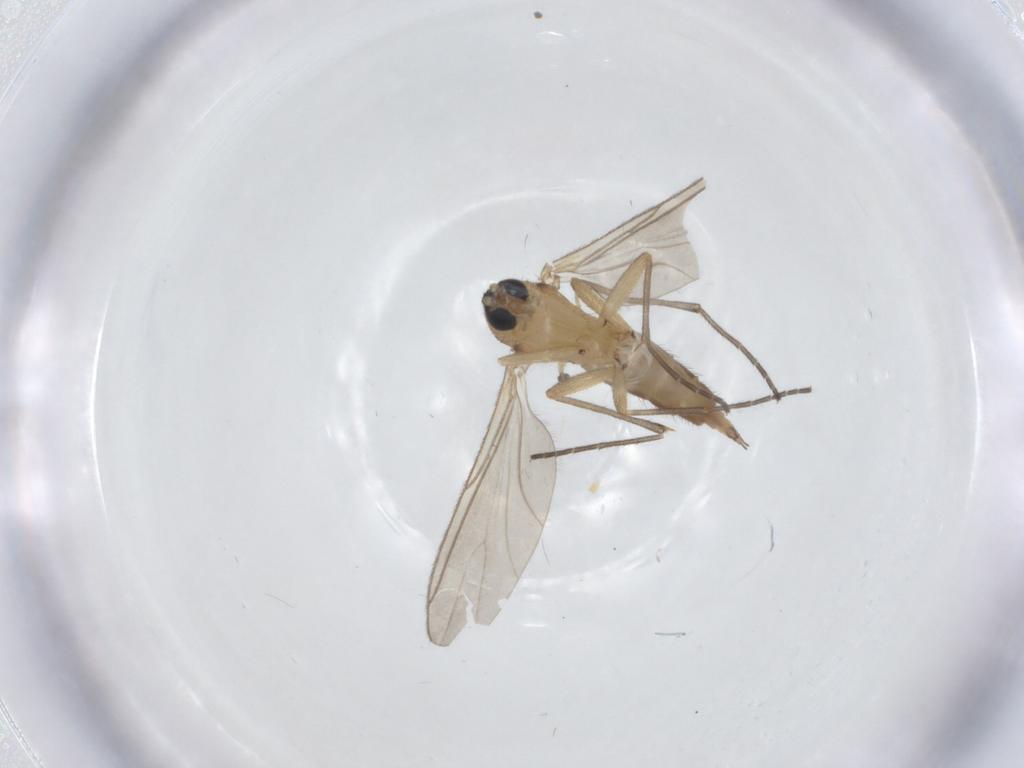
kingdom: Animalia
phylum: Arthropoda
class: Insecta
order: Diptera
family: Sciaridae
